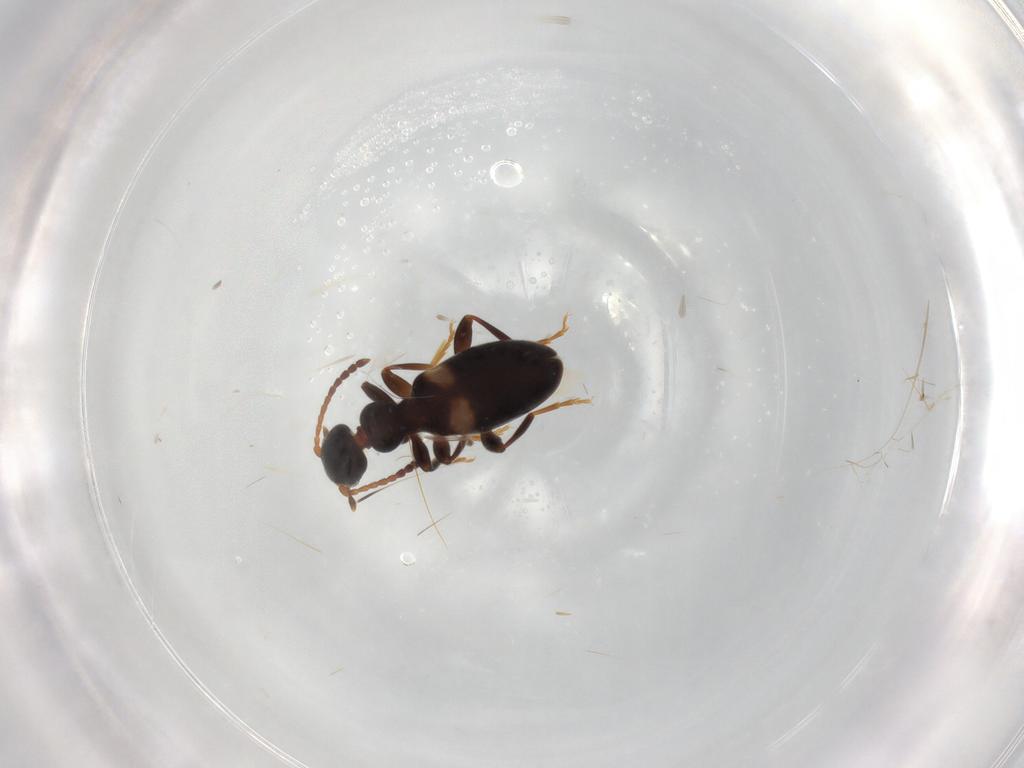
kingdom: Animalia
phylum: Arthropoda
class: Insecta
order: Coleoptera
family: Anthicidae
